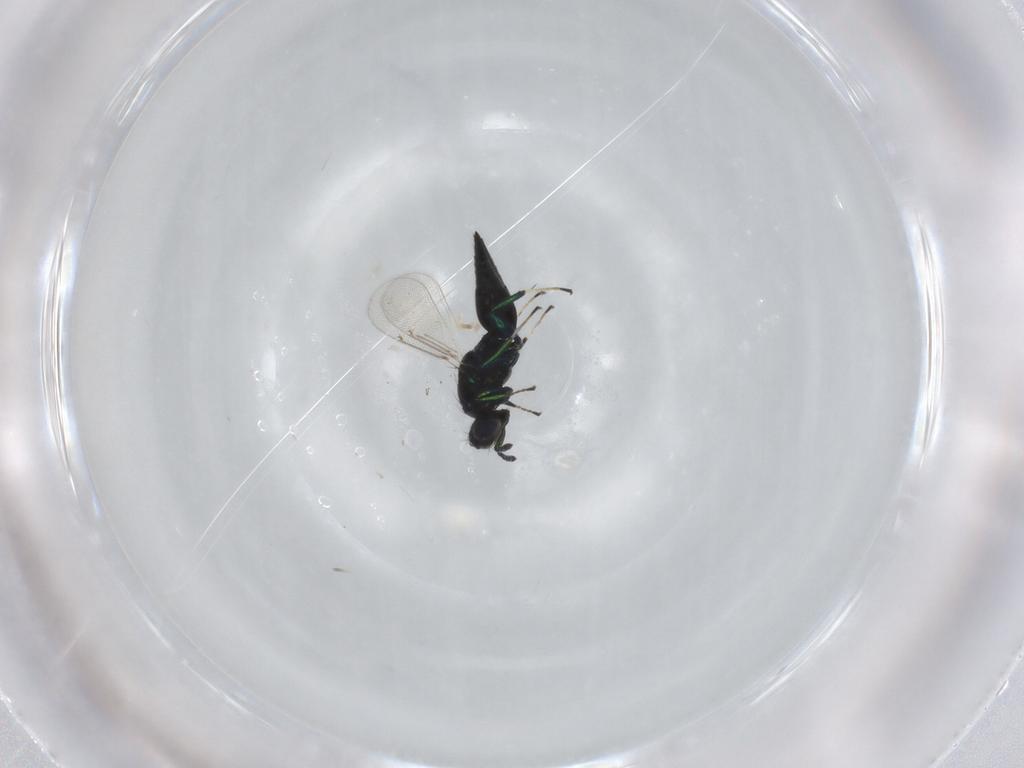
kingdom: Animalia
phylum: Arthropoda
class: Insecta
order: Hymenoptera
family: Eulophidae
